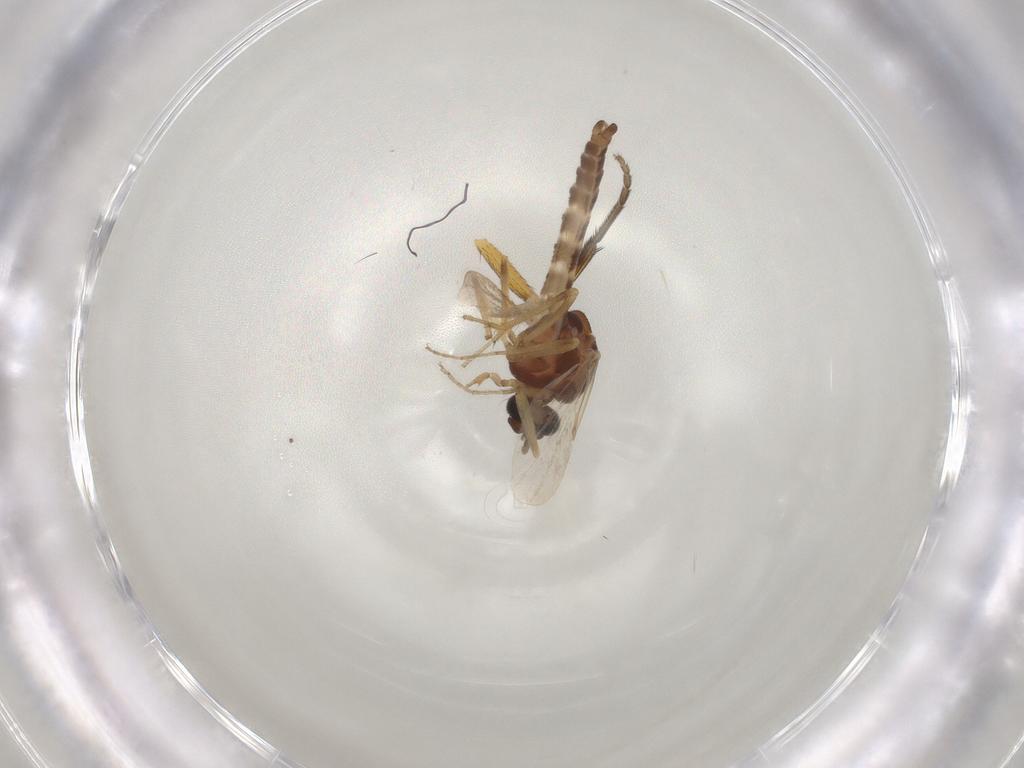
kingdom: Animalia
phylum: Arthropoda
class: Insecta
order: Diptera
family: Ceratopogonidae
